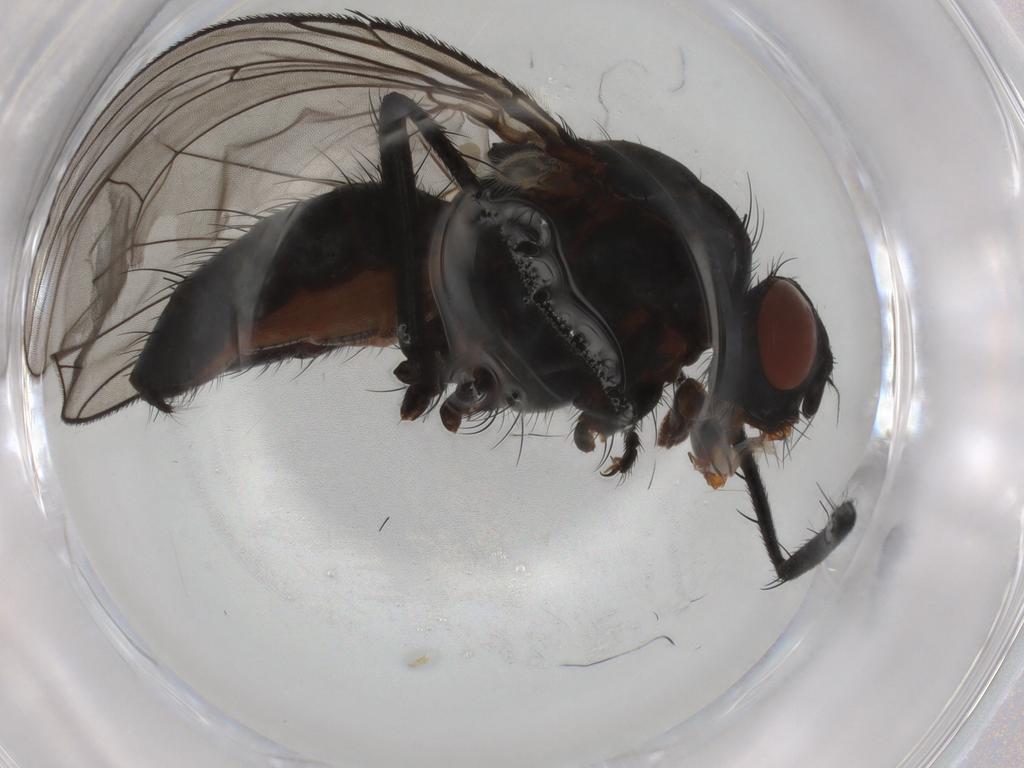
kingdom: Animalia
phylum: Arthropoda
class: Insecta
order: Diptera
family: Anthomyiidae
